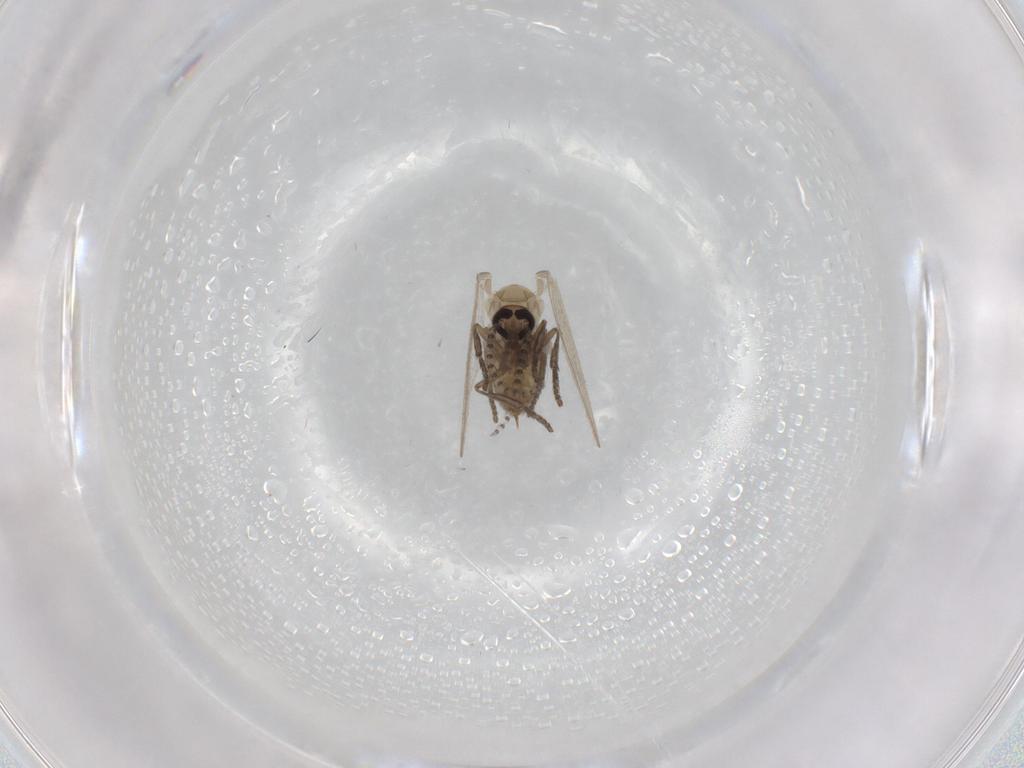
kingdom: Animalia
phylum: Arthropoda
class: Insecta
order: Diptera
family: Psychodidae
